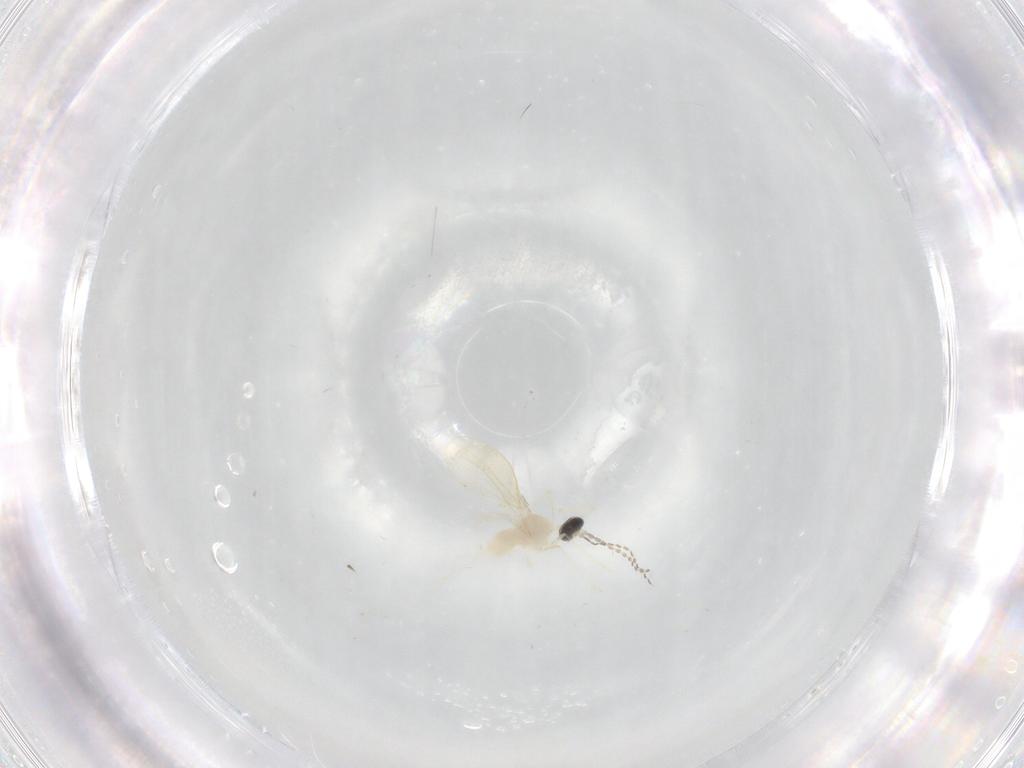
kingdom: Animalia
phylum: Arthropoda
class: Insecta
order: Diptera
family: Cecidomyiidae
